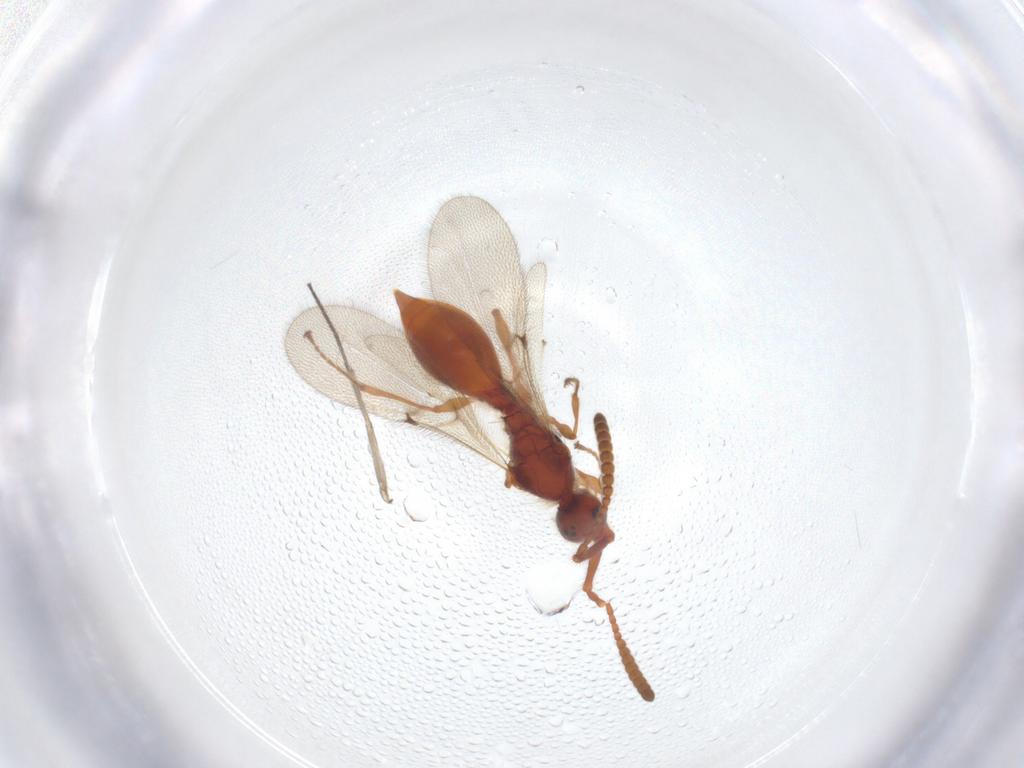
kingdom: Animalia
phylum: Arthropoda
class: Insecta
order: Hymenoptera
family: Diapriidae
